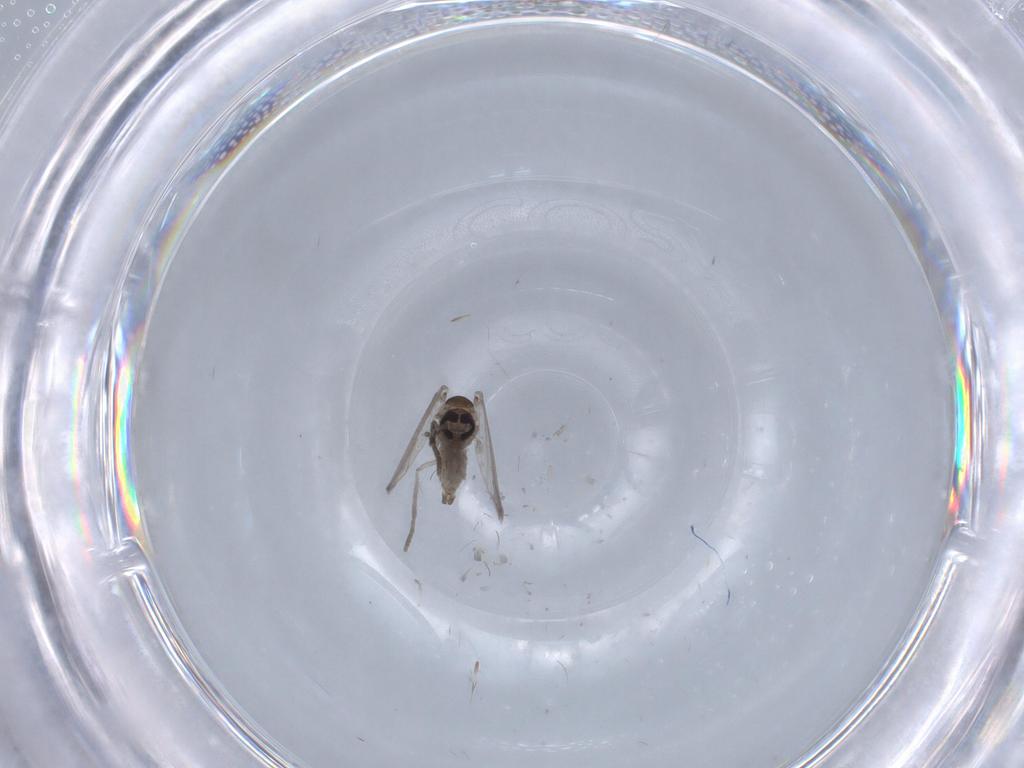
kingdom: Animalia
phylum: Arthropoda
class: Insecta
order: Diptera
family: Psychodidae
